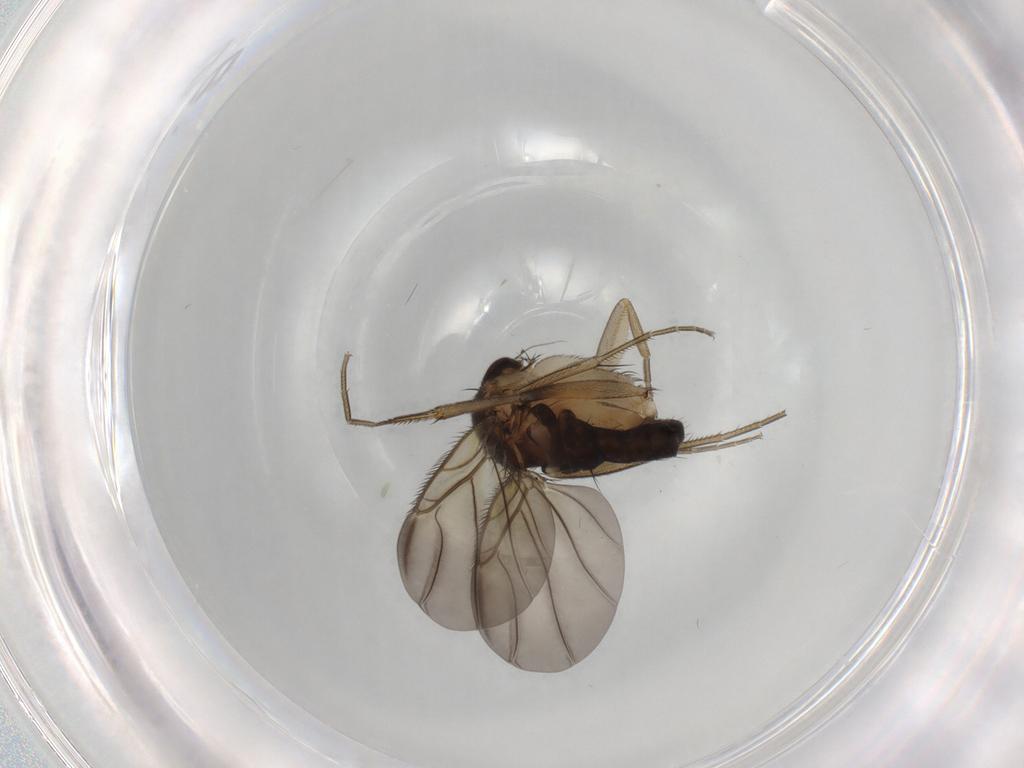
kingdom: Animalia
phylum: Arthropoda
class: Insecta
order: Diptera
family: Phoridae
